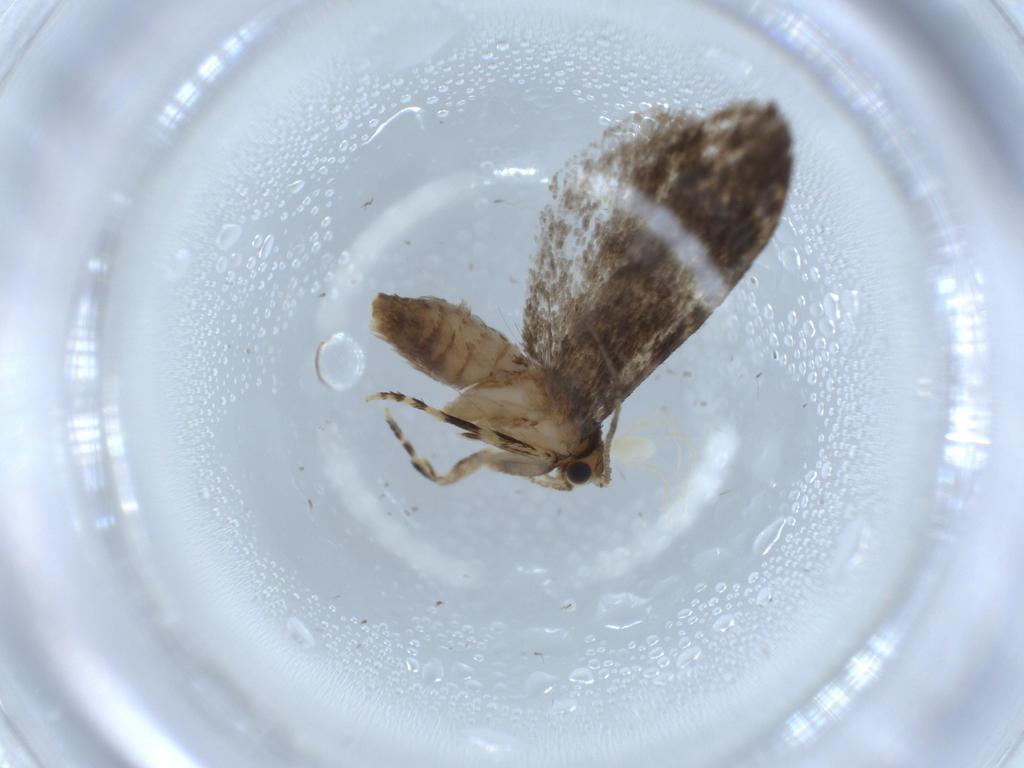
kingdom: Animalia
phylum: Arthropoda
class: Insecta
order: Lepidoptera
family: Tineidae
